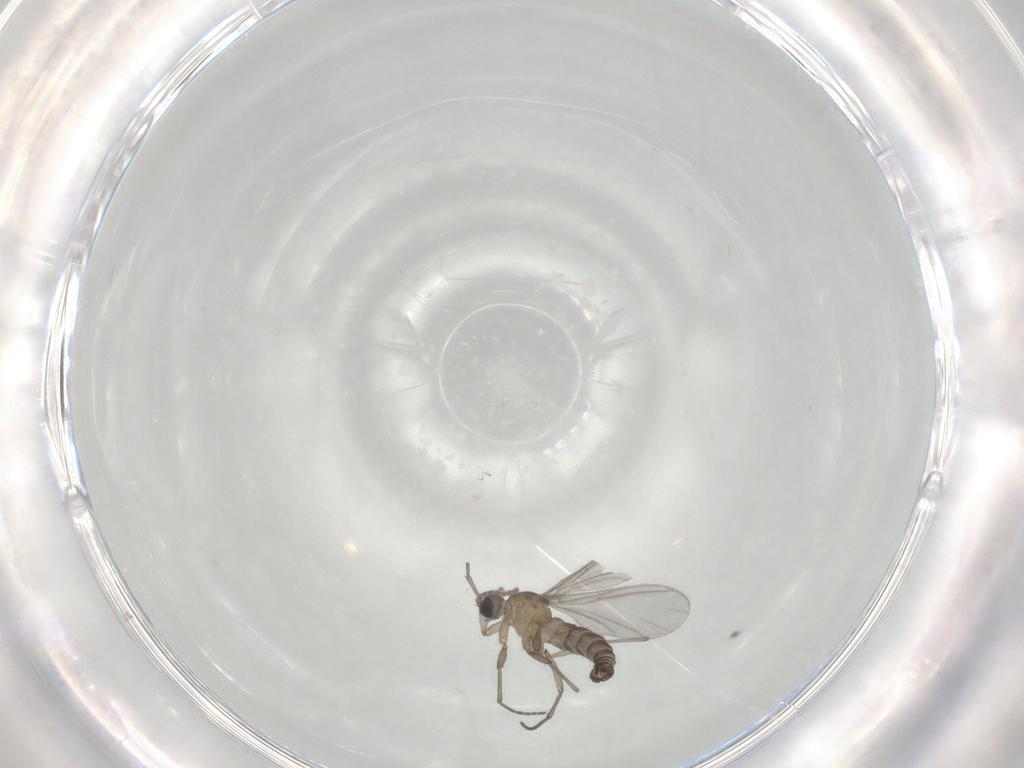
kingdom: Animalia
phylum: Arthropoda
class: Insecta
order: Diptera
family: Sciaridae
